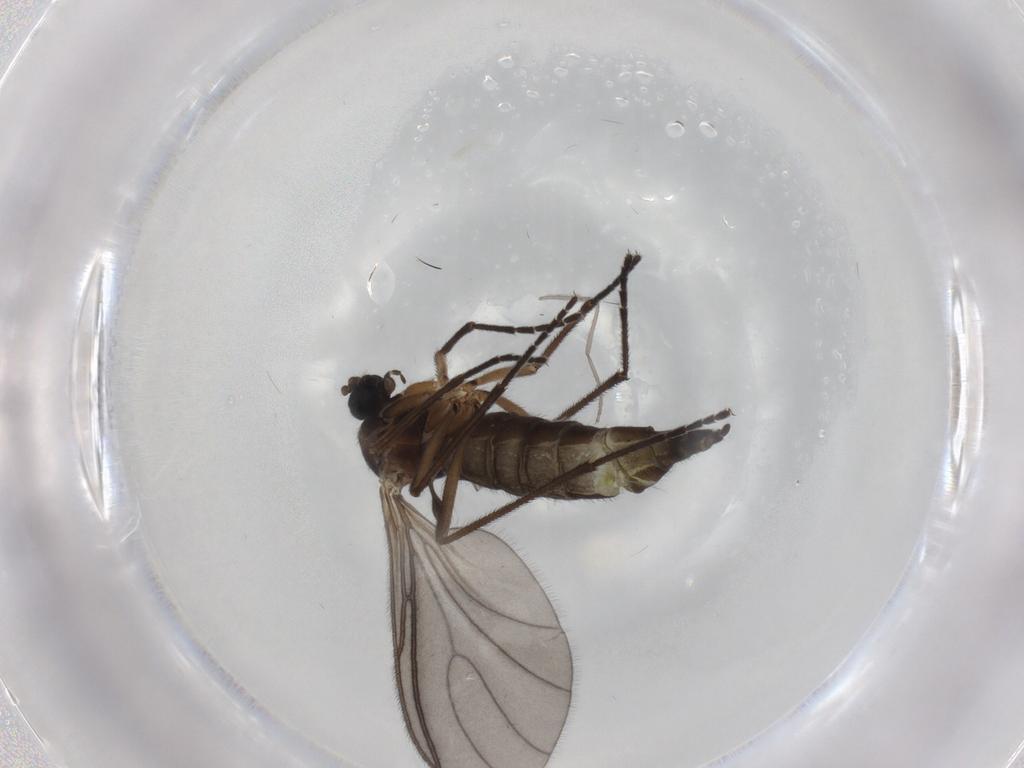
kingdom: Animalia
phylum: Arthropoda
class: Insecta
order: Diptera
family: Sciaridae
